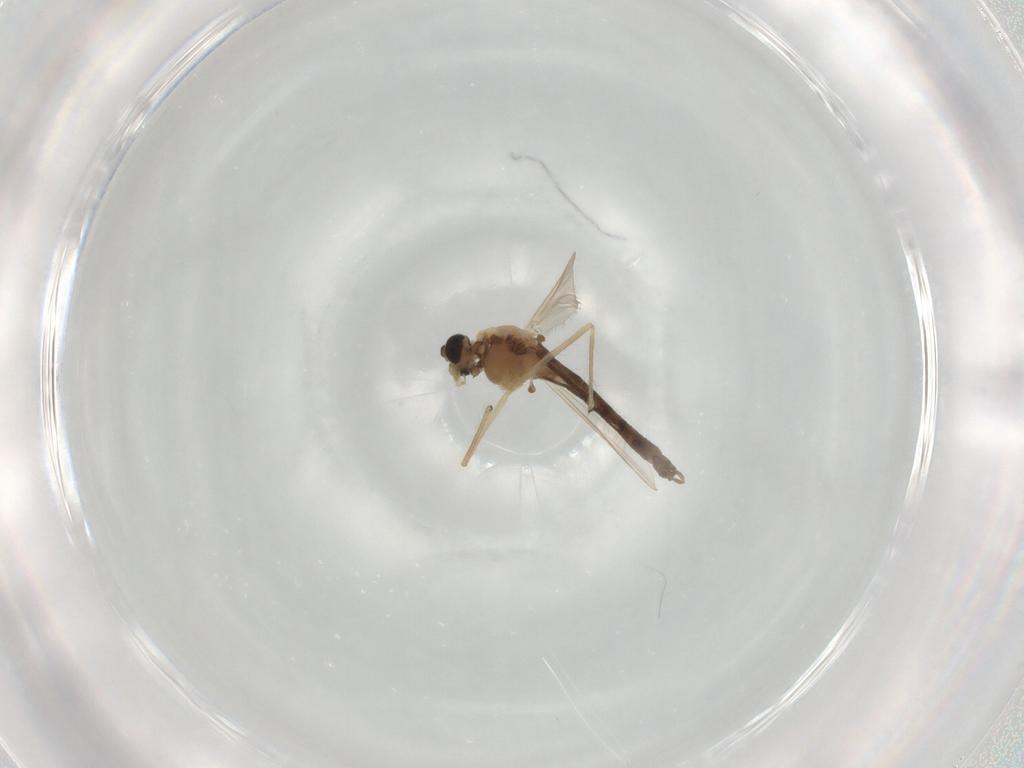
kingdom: Animalia
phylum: Arthropoda
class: Insecta
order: Diptera
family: Chironomidae
